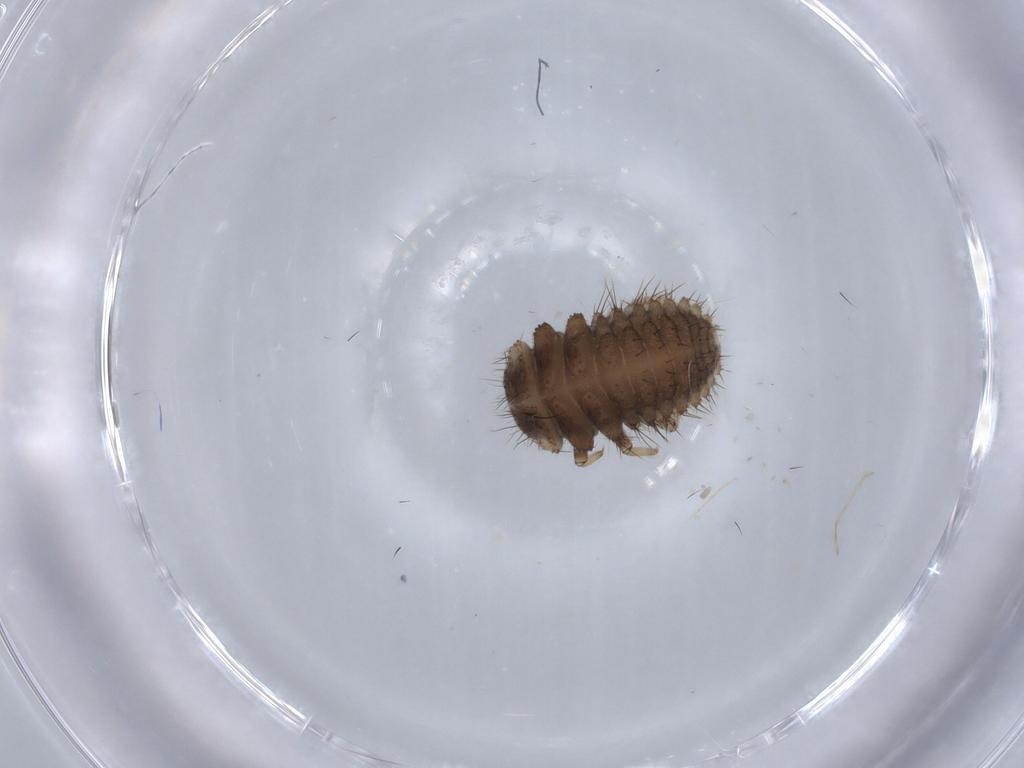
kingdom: Animalia
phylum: Arthropoda
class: Insecta
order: Coleoptera
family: Coccinellidae
